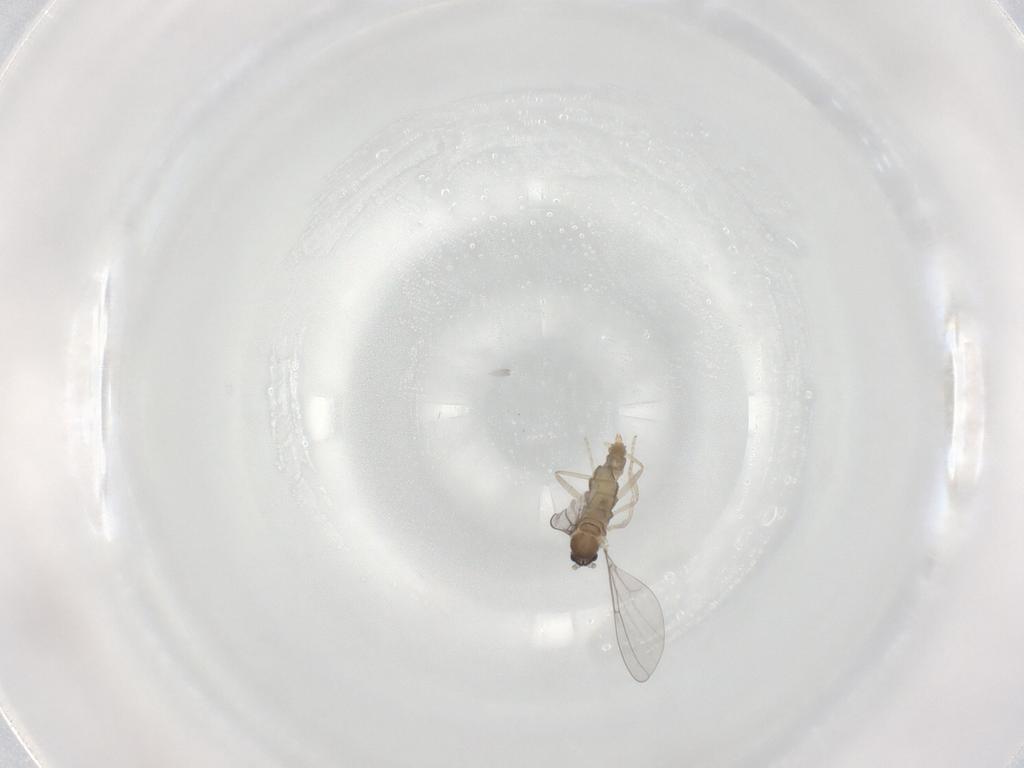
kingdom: Animalia
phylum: Arthropoda
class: Insecta
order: Diptera
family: Cecidomyiidae
